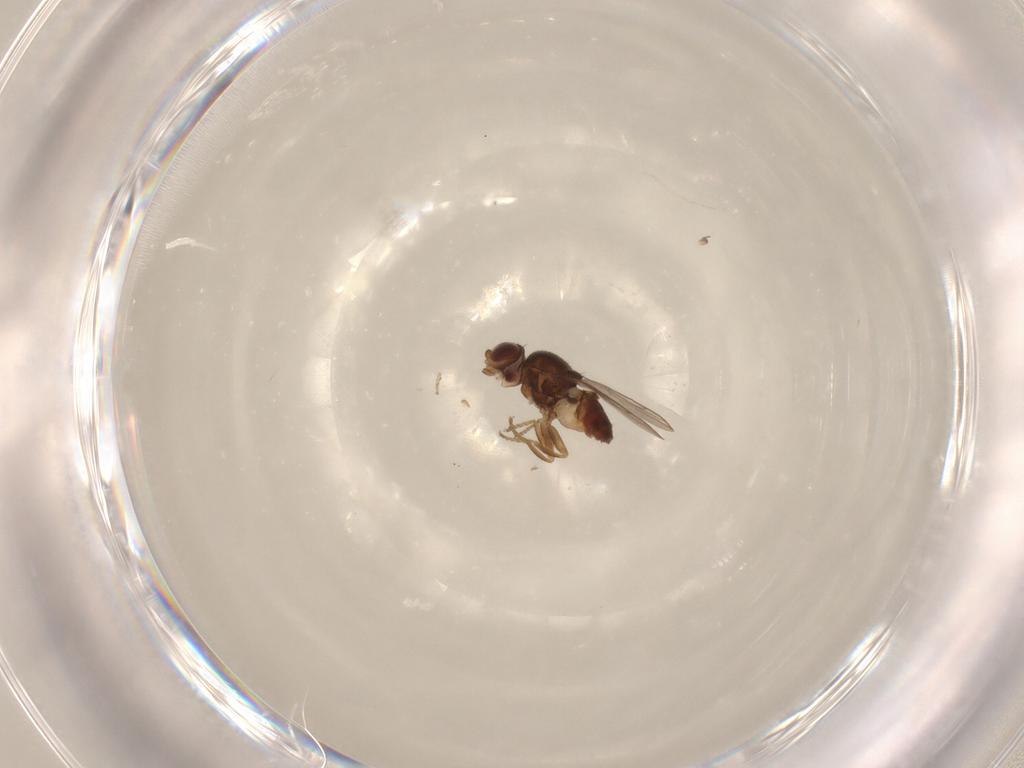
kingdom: Animalia
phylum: Arthropoda
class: Insecta
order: Diptera
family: Chloropidae
